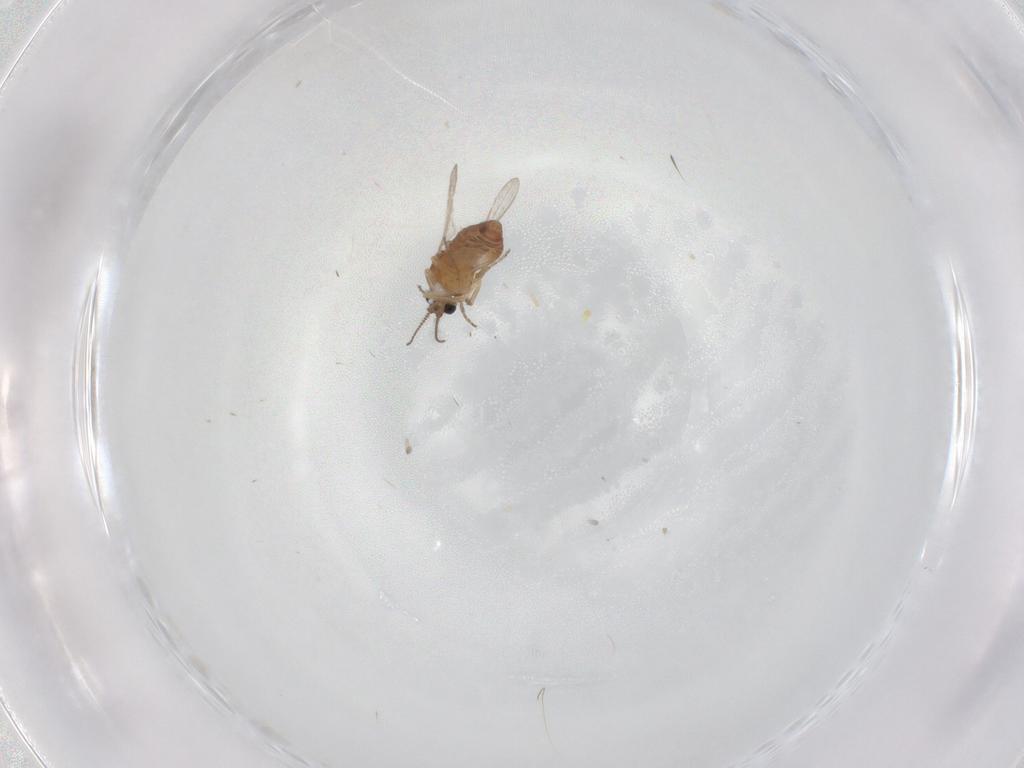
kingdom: Animalia
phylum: Arthropoda
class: Insecta
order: Diptera
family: Ceratopogonidae
